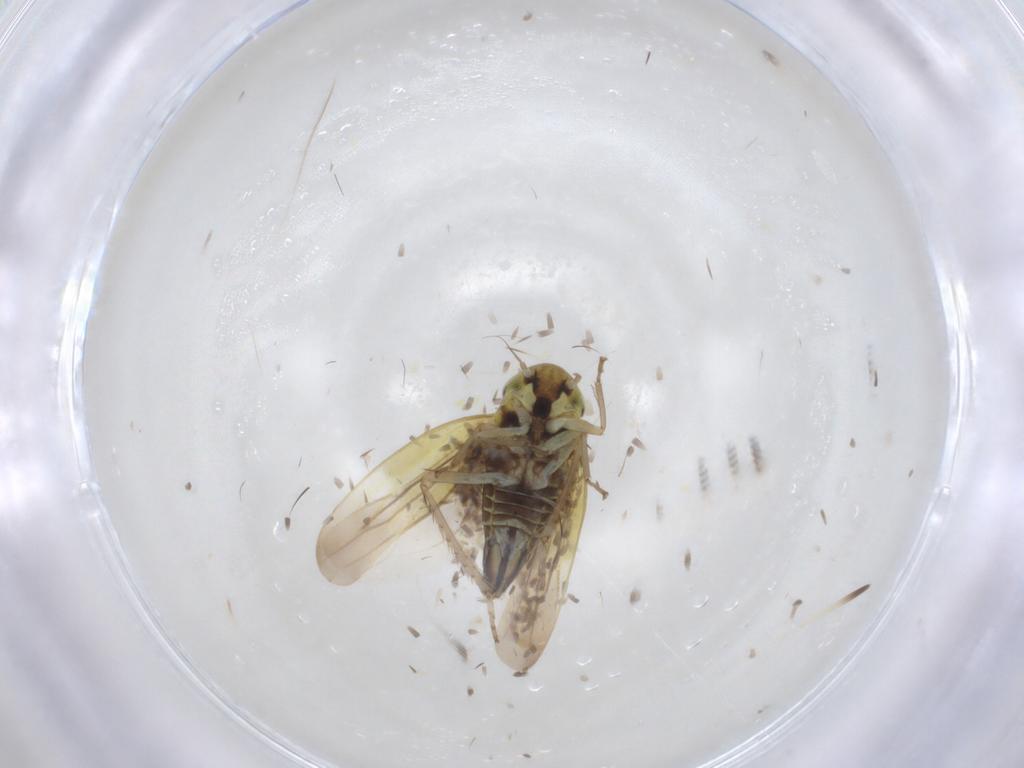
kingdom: Animalia
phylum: Arthropoda
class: Insecta
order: Hemiptera
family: Cicadellidae
